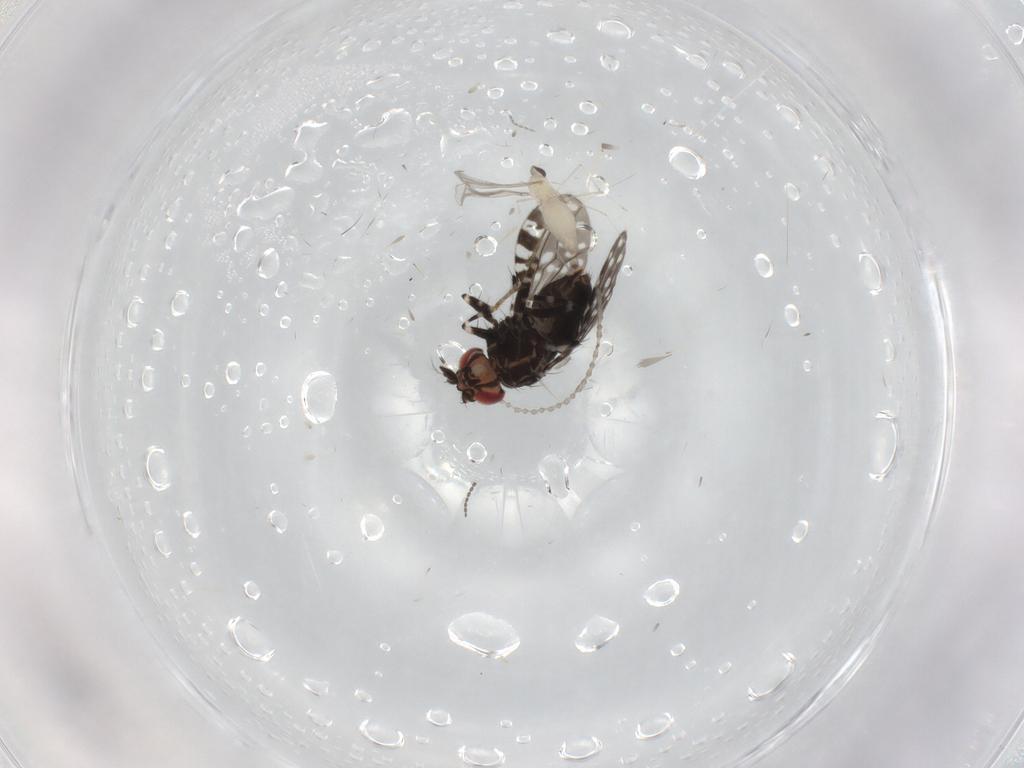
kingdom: Animalia
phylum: Arthropoda
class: Insecta
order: Diptera
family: Drosophilidae
